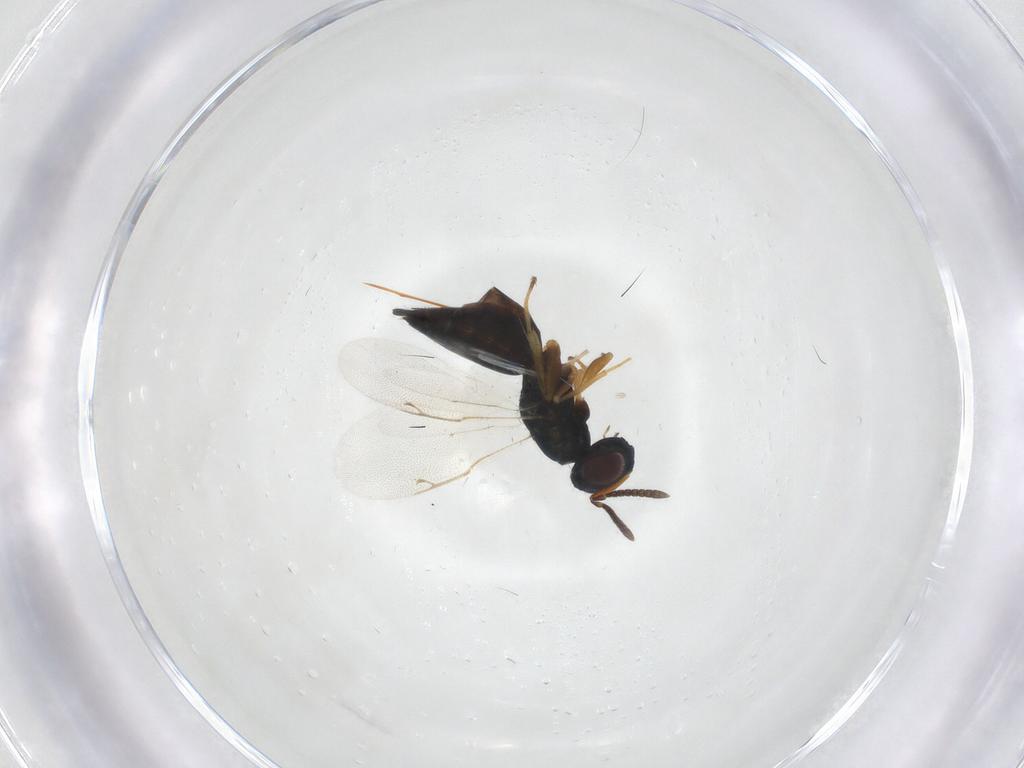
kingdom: Animalia
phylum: Arthropoda
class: Insecta
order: Hymenoptera
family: Pteromalidae
